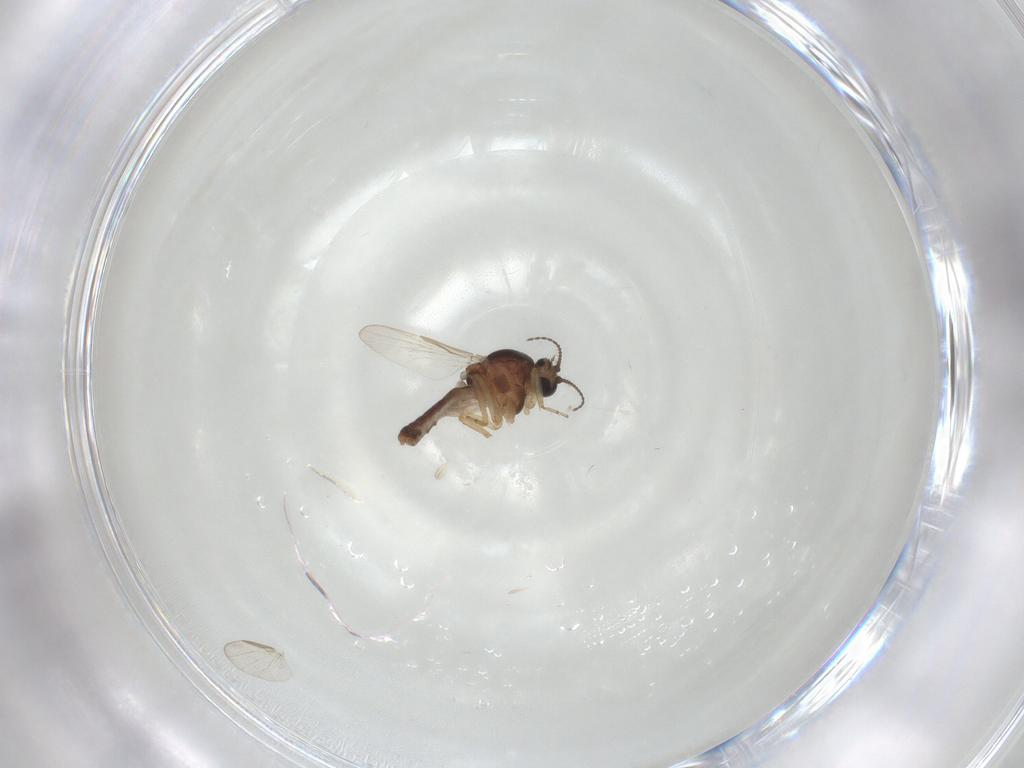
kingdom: Animalia
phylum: Arthropoda
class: Insecta
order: Diptera
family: Ceratopogonidae
